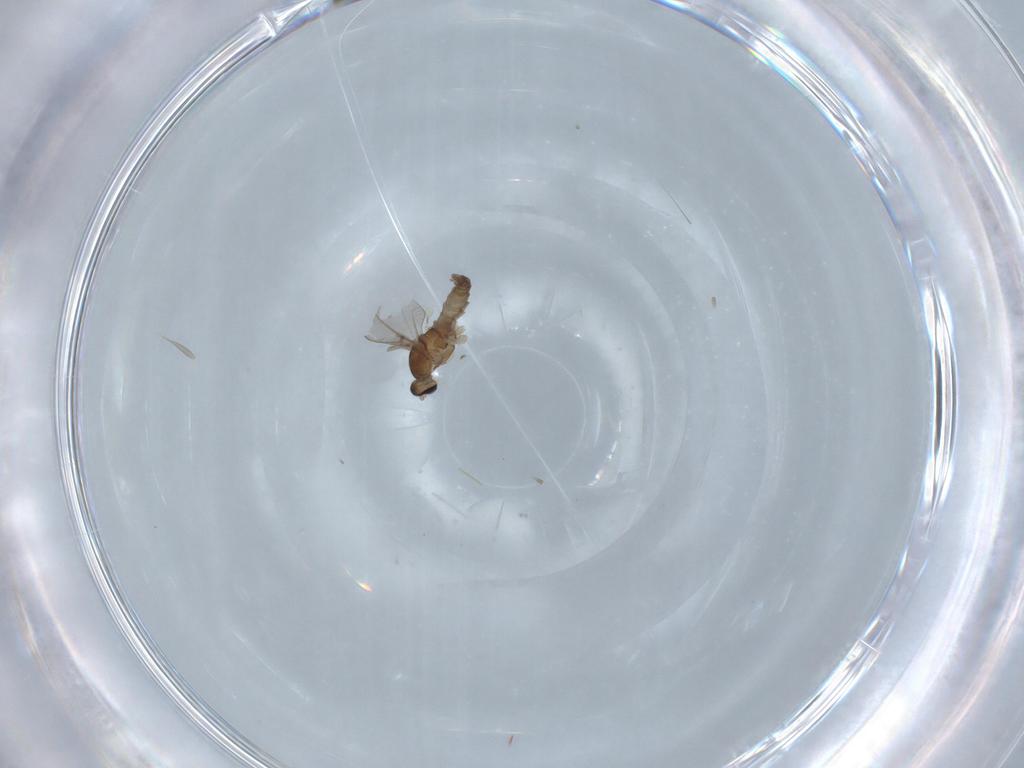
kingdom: Animalia
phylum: Arthropoda
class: Insecta
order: Diptera
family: Cecidomyiidae
